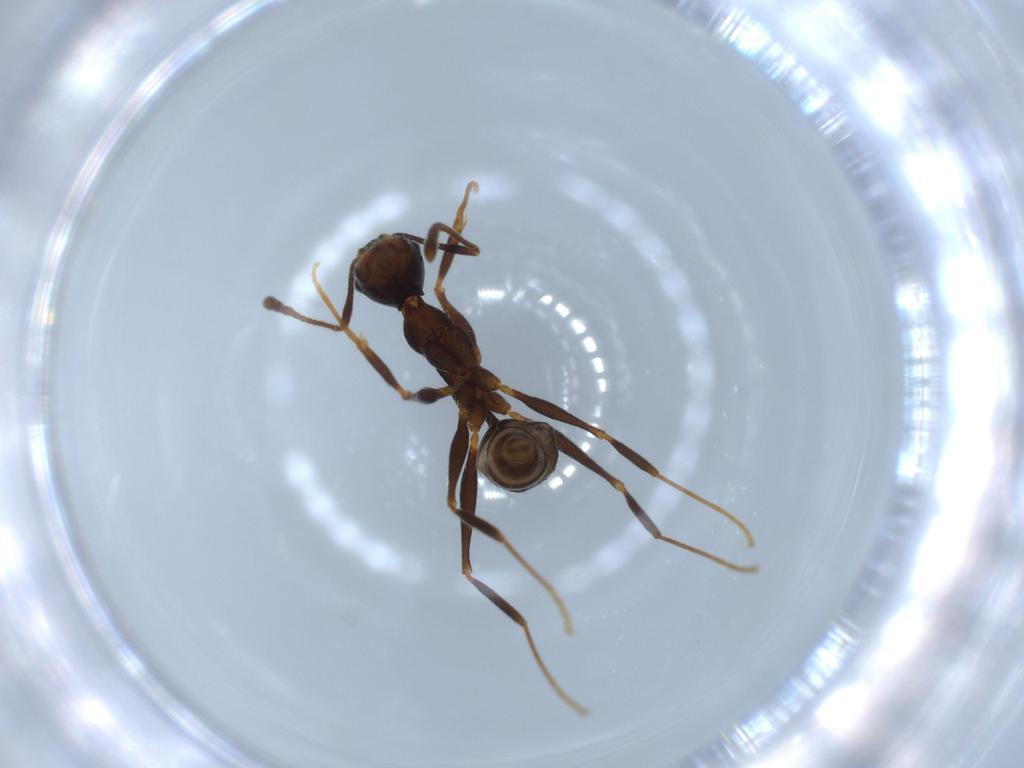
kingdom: Animalia
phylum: Arthropoda
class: Insecta
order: Hymenoptera
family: Formicidae
